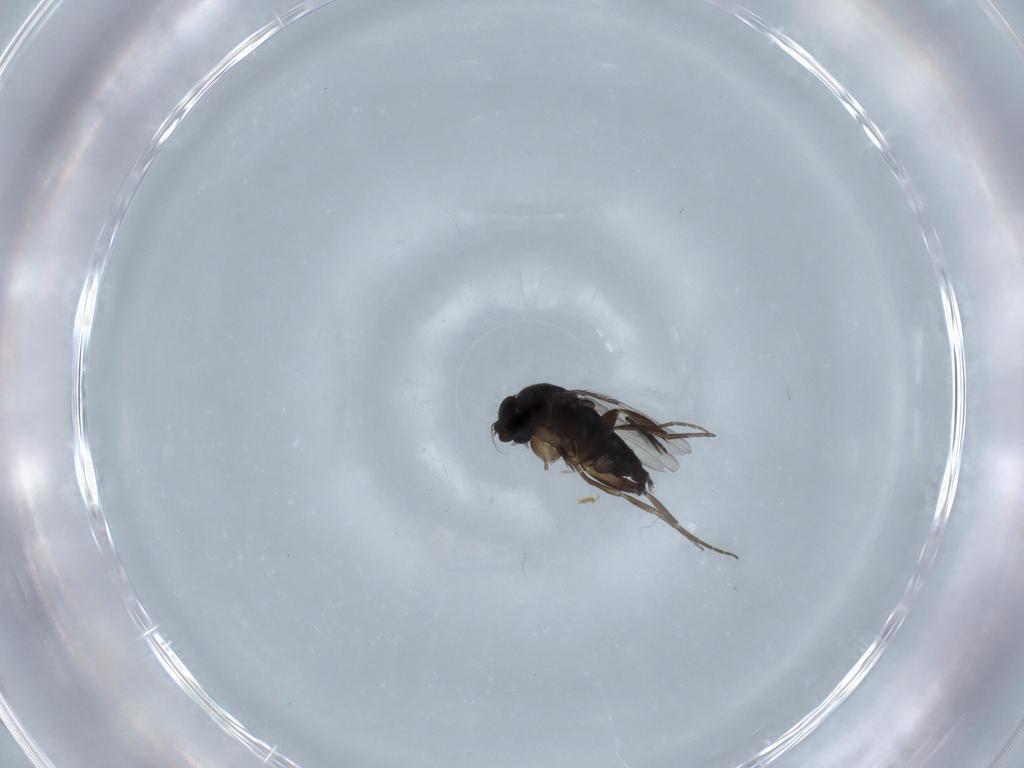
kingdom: Animalia
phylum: Arthropoda
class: Insecta
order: Diptera
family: Phoridae
